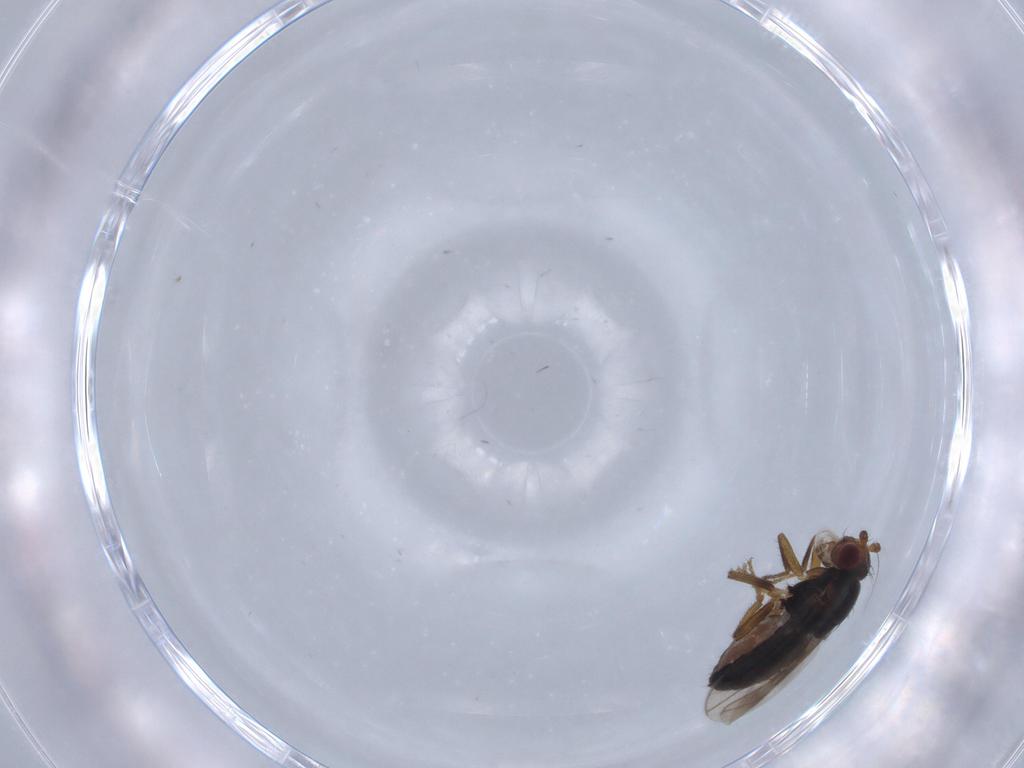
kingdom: Animalia
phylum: Arthropoda
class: Insecta
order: Diptera
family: Sphaeroceridae
